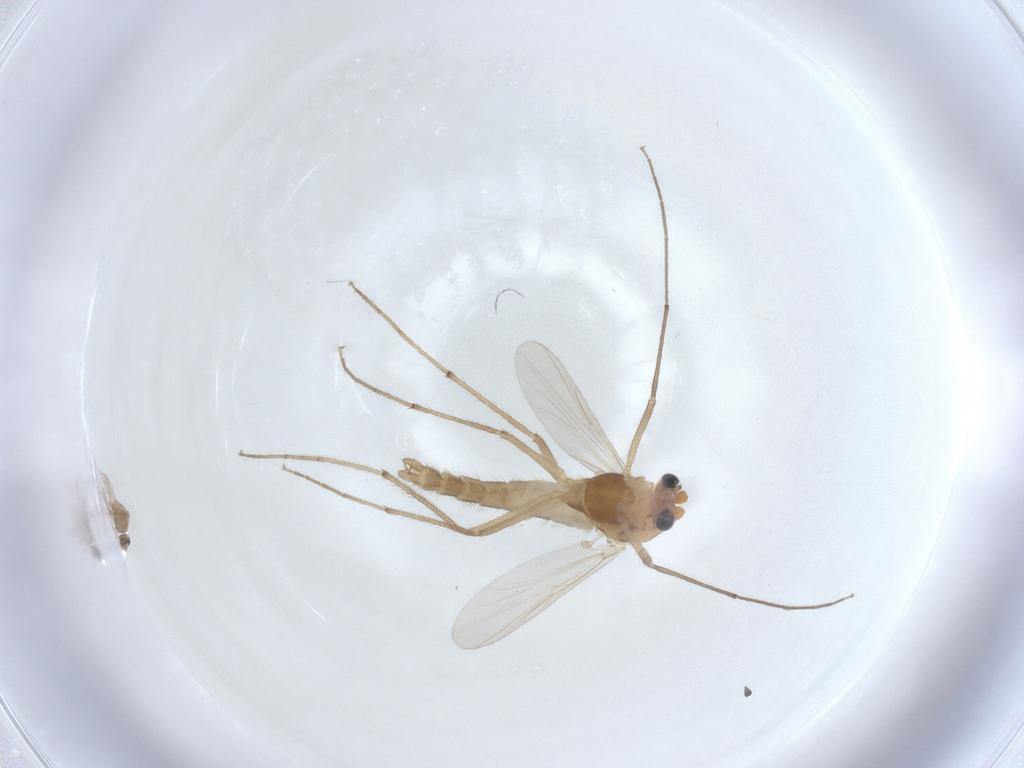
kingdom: Animalia
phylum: Arthropoda
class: Insecta
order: Diptera
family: Chironomidae
